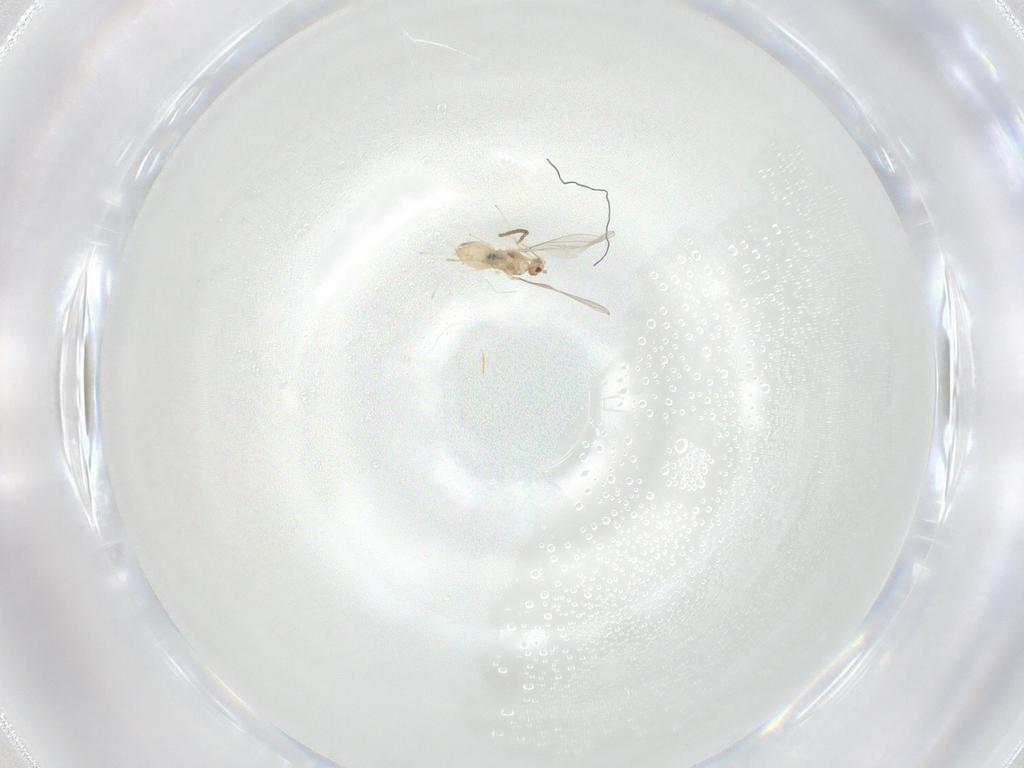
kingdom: Animalia
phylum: Arthropoda
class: Insecta
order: Diptera
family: Cecidomyiidae
